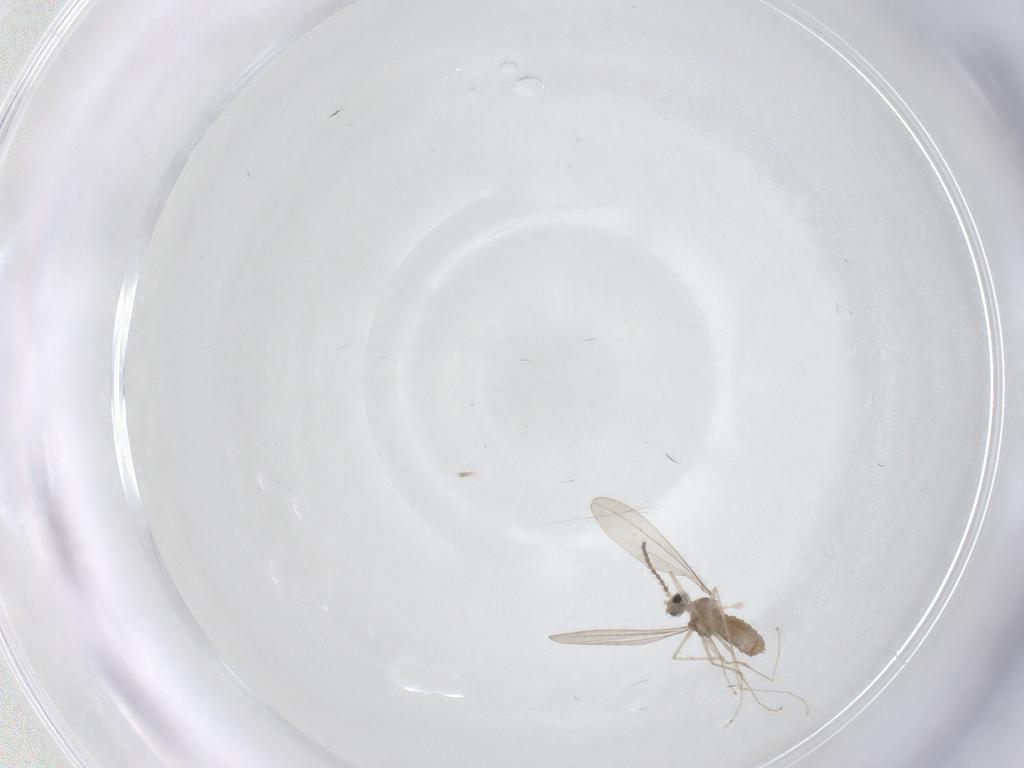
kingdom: Animalia
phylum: Arthropoda
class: Insecta
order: Diptera
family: Cecidomyiidae
